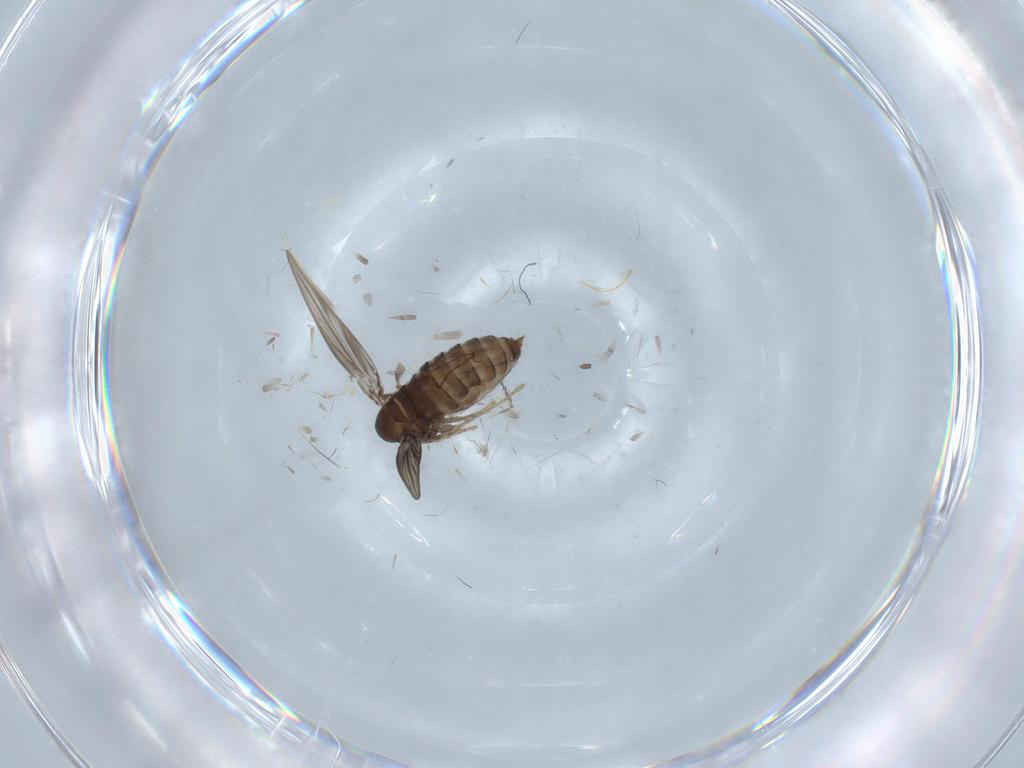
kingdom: Animalia
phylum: Arthropoda
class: Insecta
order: Diptera
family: Psychodidae
